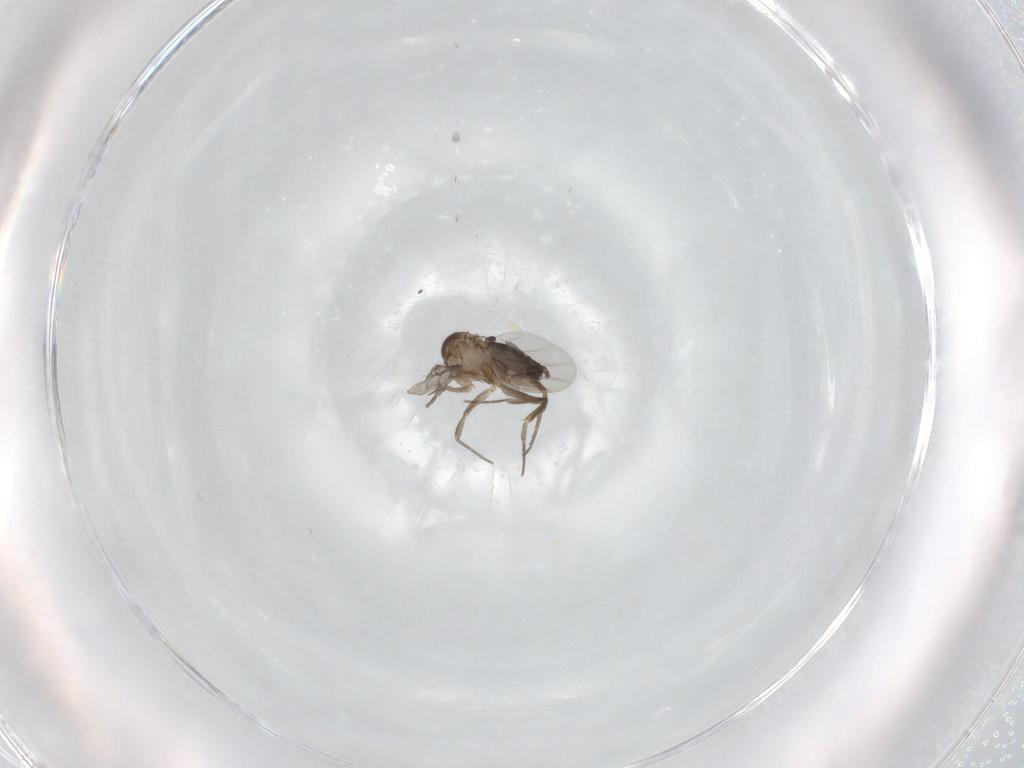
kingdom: Animalia
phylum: Arthropoda
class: Insecta
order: Diptera
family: Phoridae
